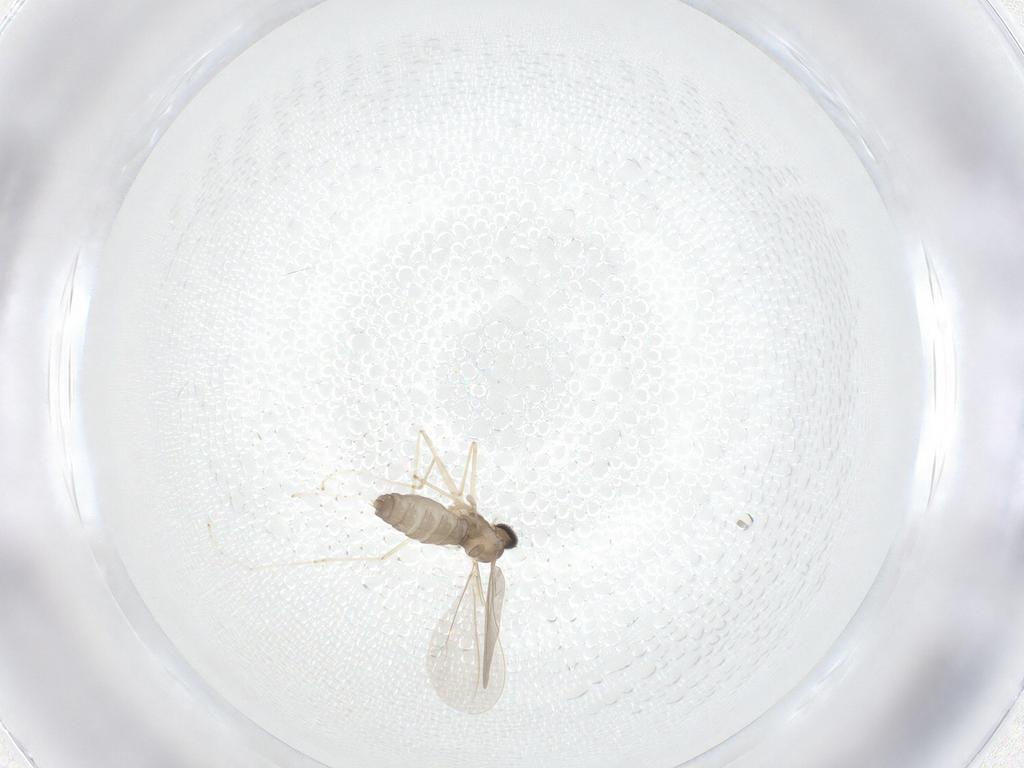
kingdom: Animalia
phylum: Arthropoda
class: Insecta
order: Diptera
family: Cecidomyiidae
